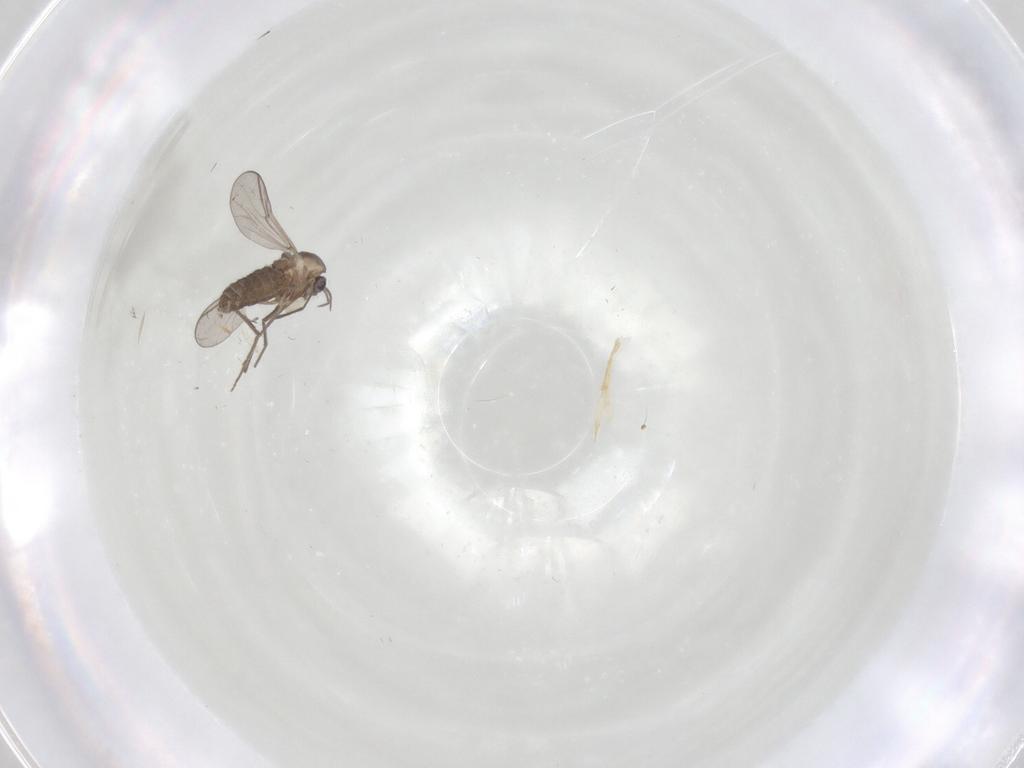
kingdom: Animalia
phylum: Arthropoda
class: Insecta
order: Diptera
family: Chironomidae
